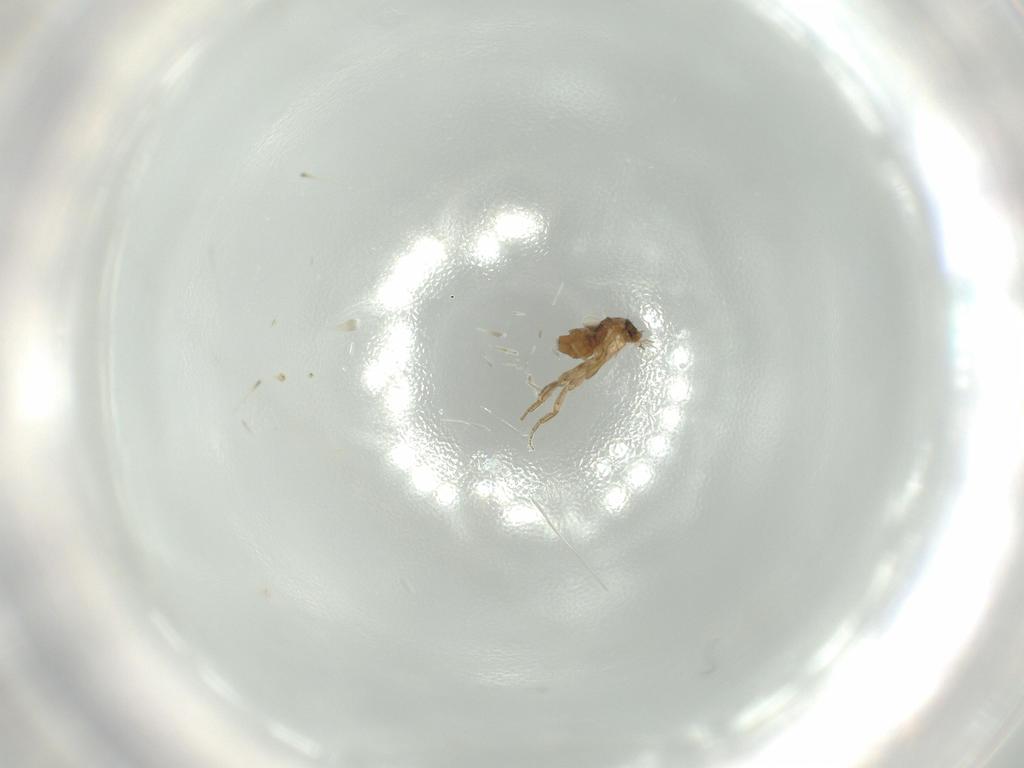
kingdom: Animalia
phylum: Arthropoda
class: Insecta
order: Diptera
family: Phoridae
